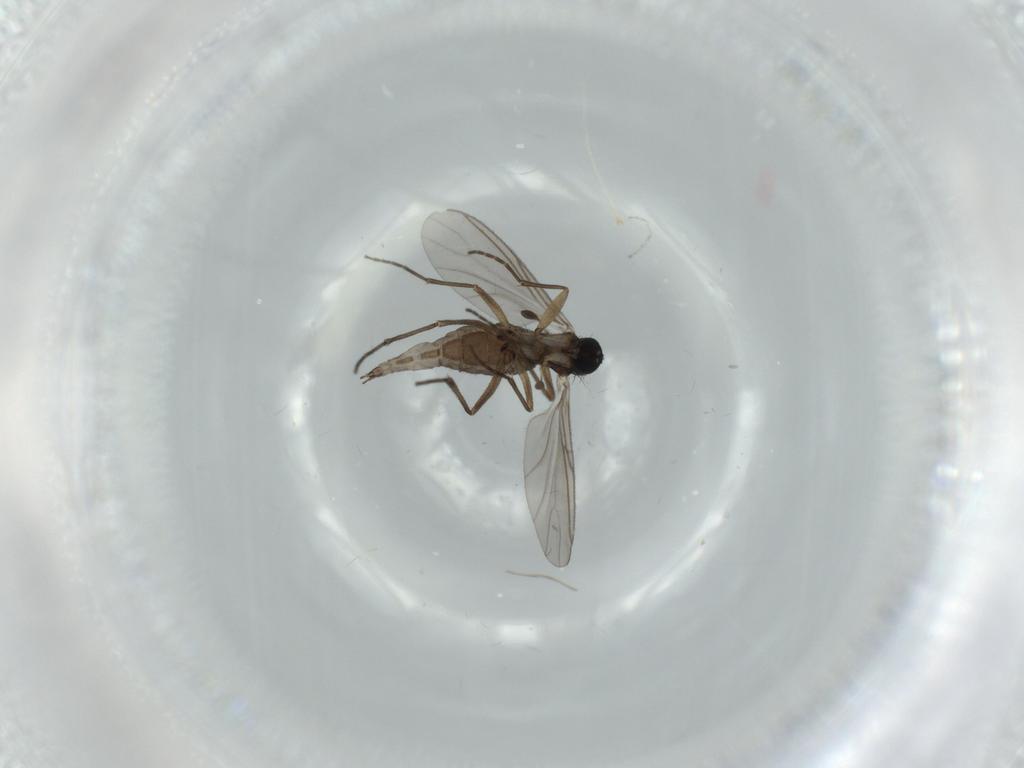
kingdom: Animalia
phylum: Arthropoda
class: Insecta
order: Diptera
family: Sciaridae
